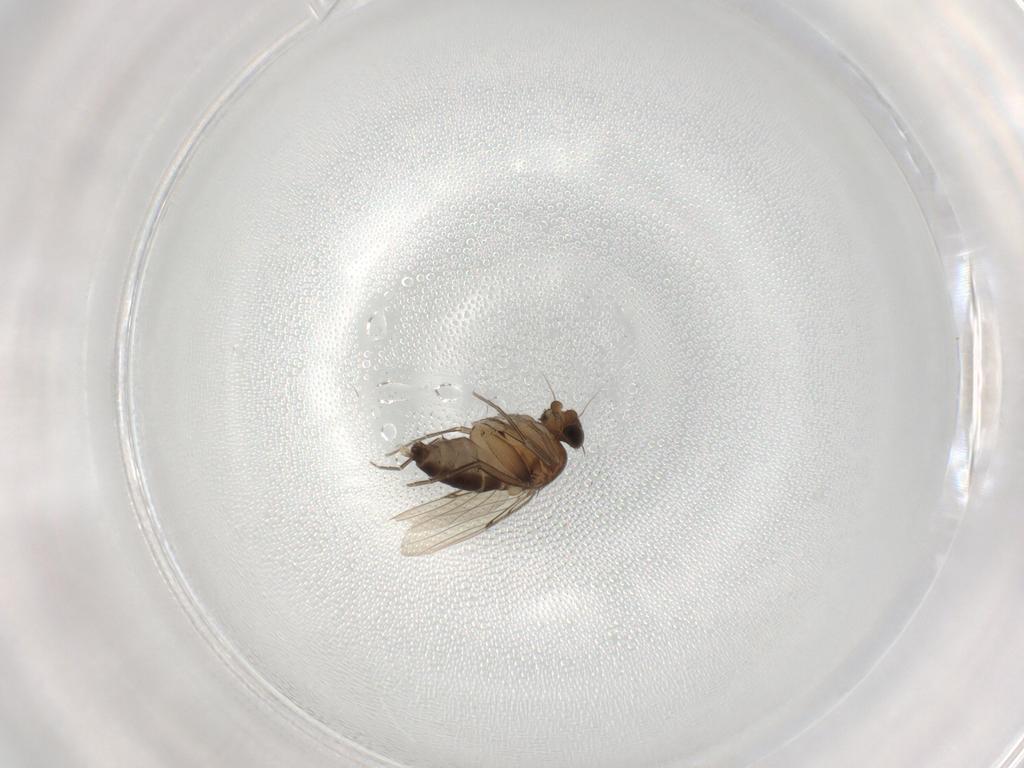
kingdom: Animalia
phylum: Arthropoda
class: Insecta
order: Diptera
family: Phoridae
